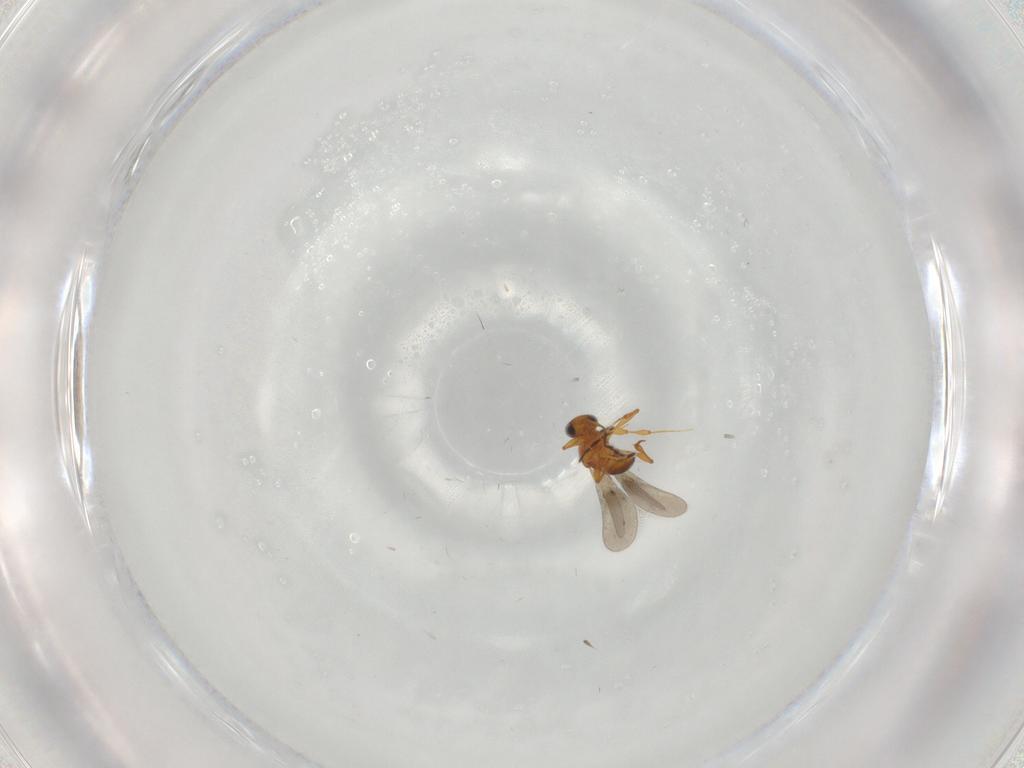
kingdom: Animalia
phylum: Arthropoda
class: Insecta
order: Hymenoptera
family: Platygastridae
